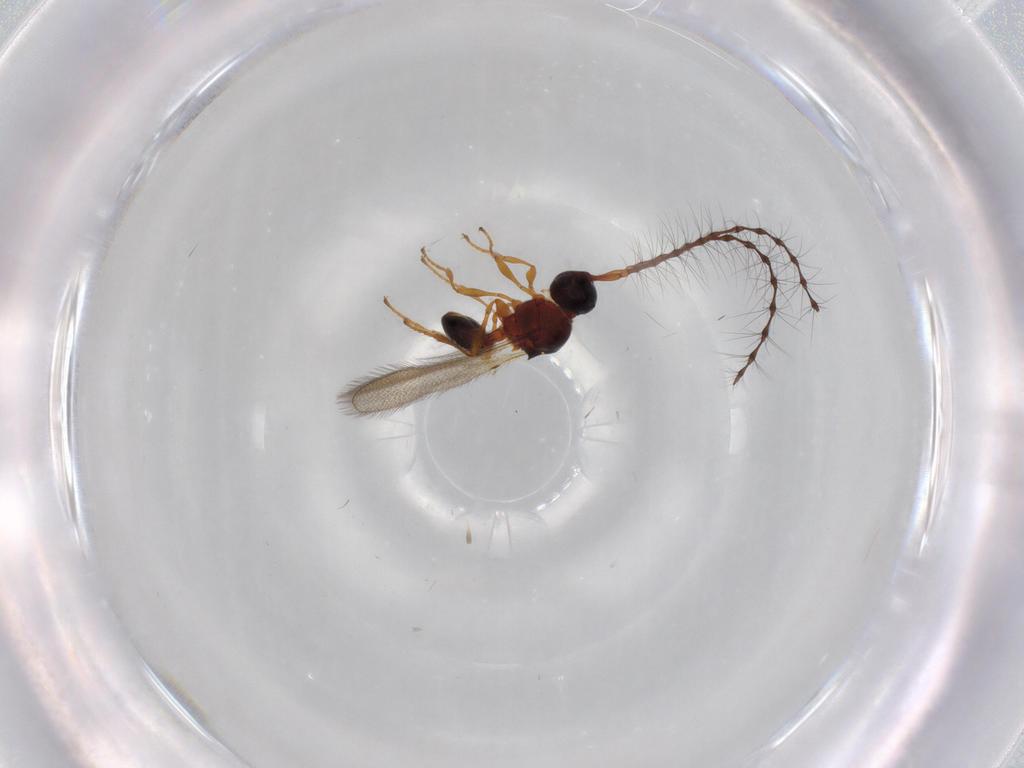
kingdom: Animalia
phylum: Arthropoda
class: Insecta
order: Hymenoptera
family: Diapriidae
